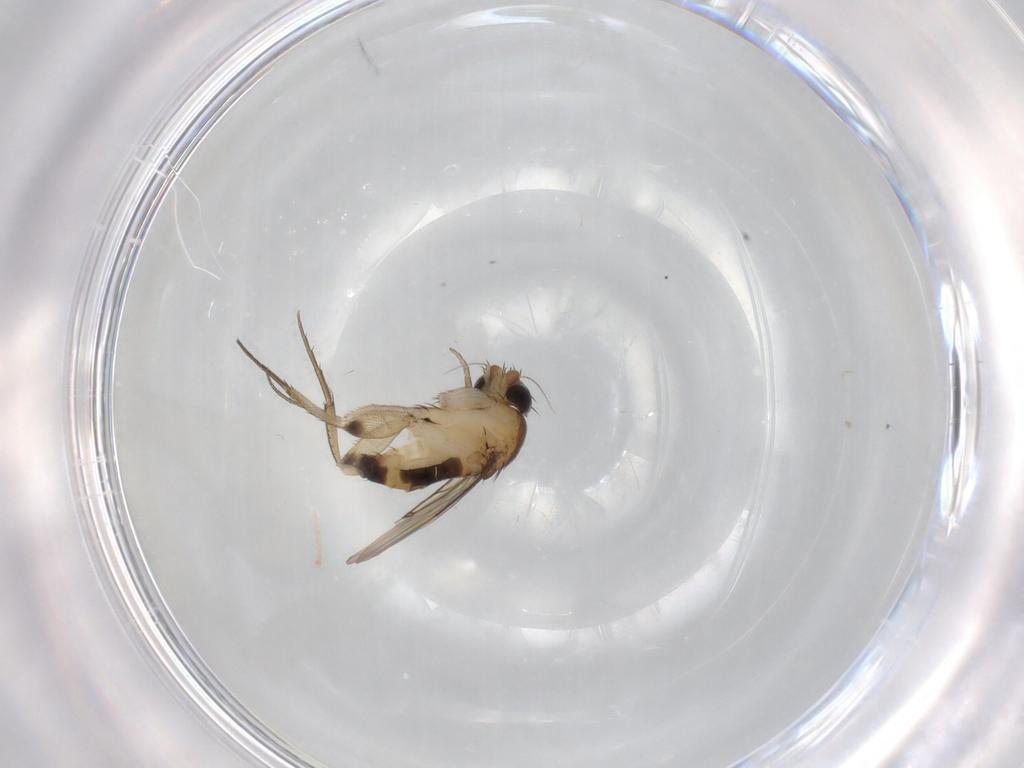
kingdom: Animalia
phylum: Arthropoda
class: Insecta
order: Diptera
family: Phoridae
